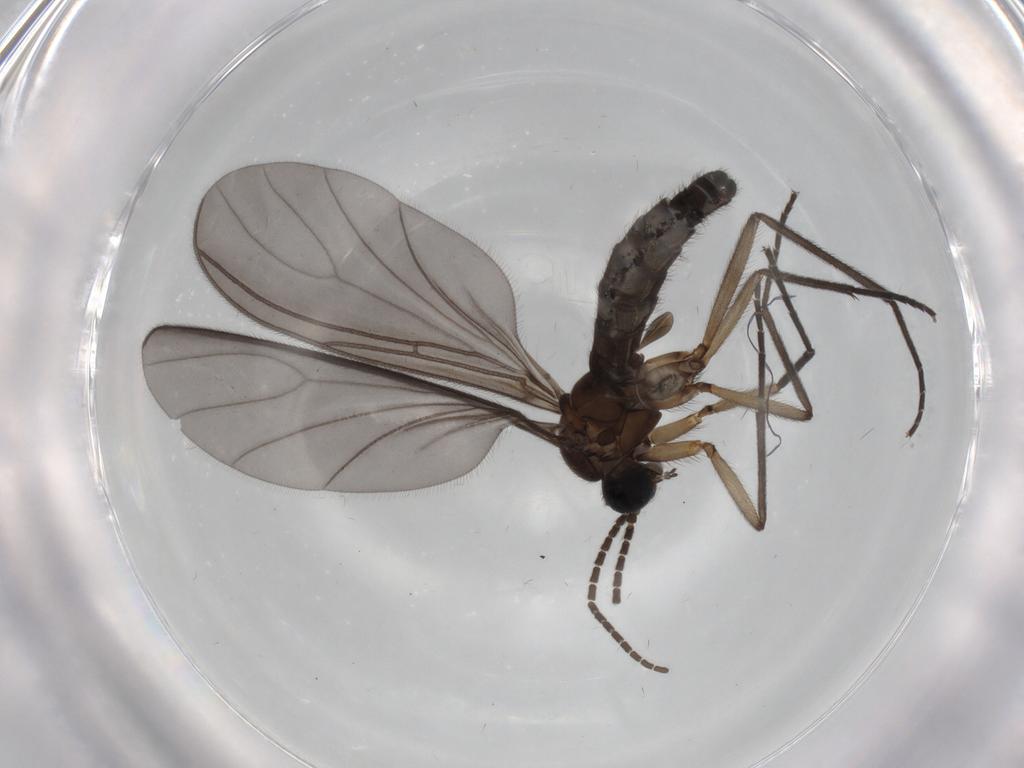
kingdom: Animalia
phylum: Arthropoda
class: Insecta
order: Diptera
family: Sciaridae
